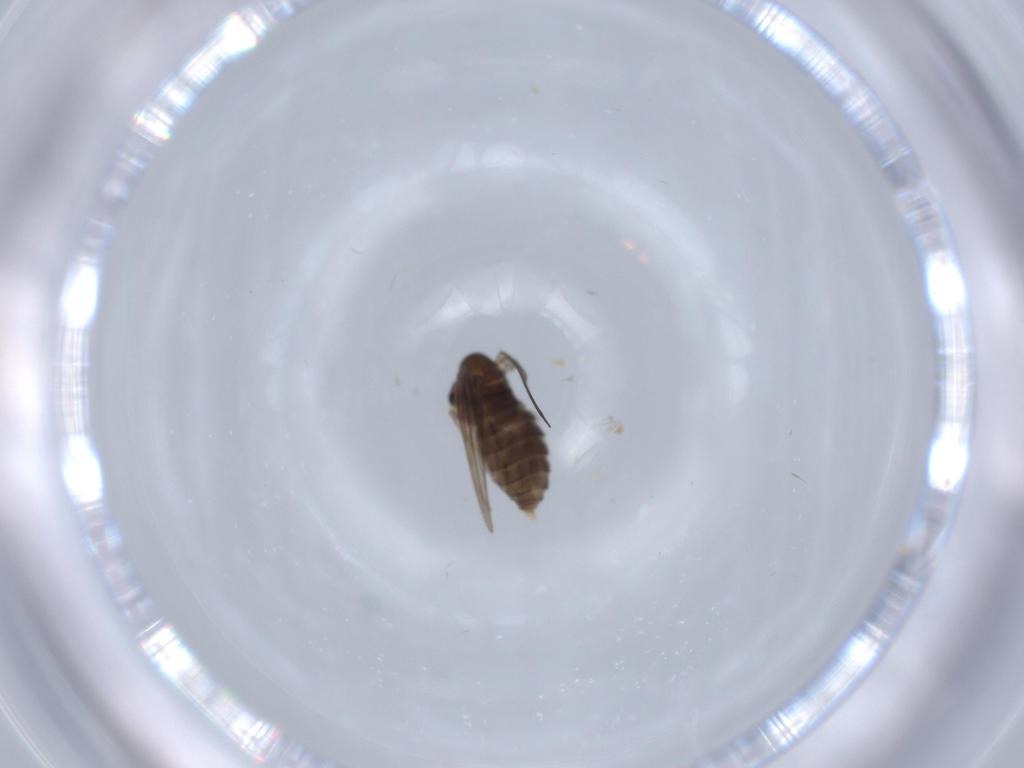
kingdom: Animalia
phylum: Arthropoda
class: Insecta
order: Diptera
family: Psychodidae
